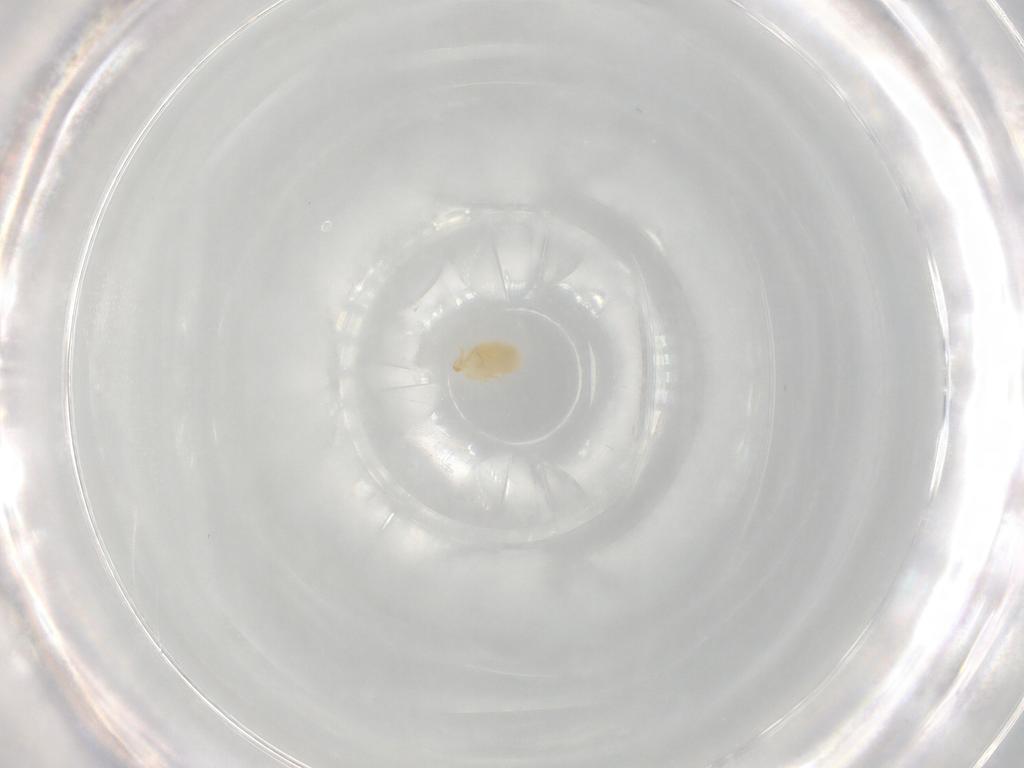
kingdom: Animalia
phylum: Arthropoda
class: Arachnida
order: Trombidiformes
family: Microtrombidiidae
